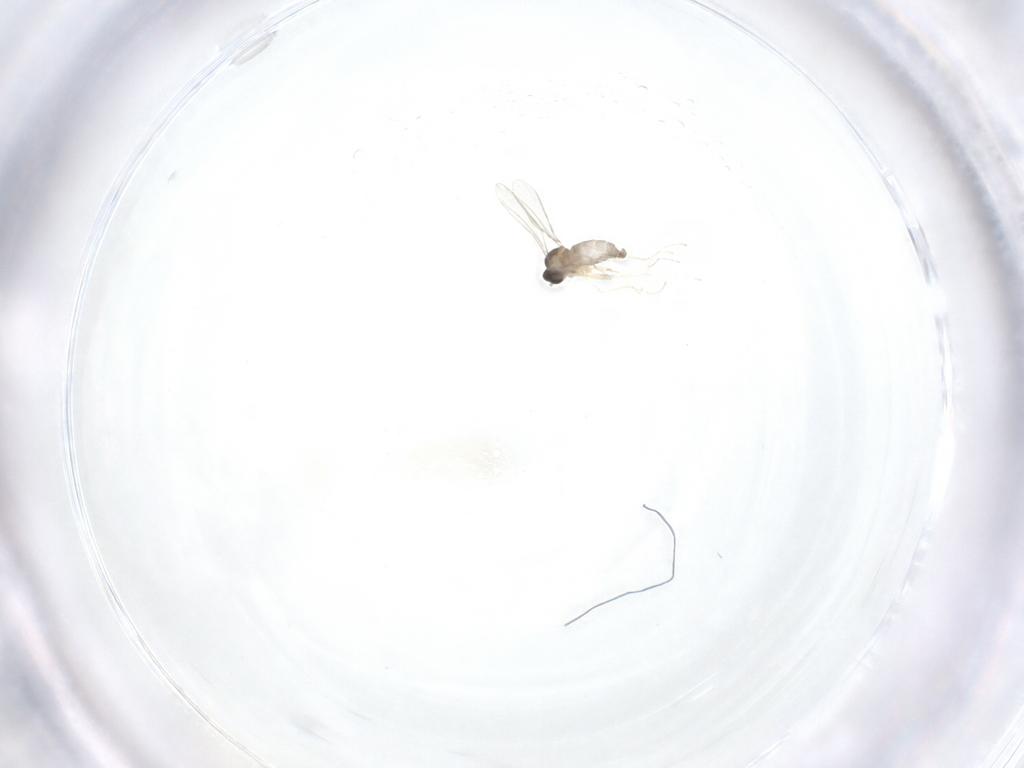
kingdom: Animalia
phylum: Arthropoda
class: Insecta
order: Diptera
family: Cecidomyiidae
